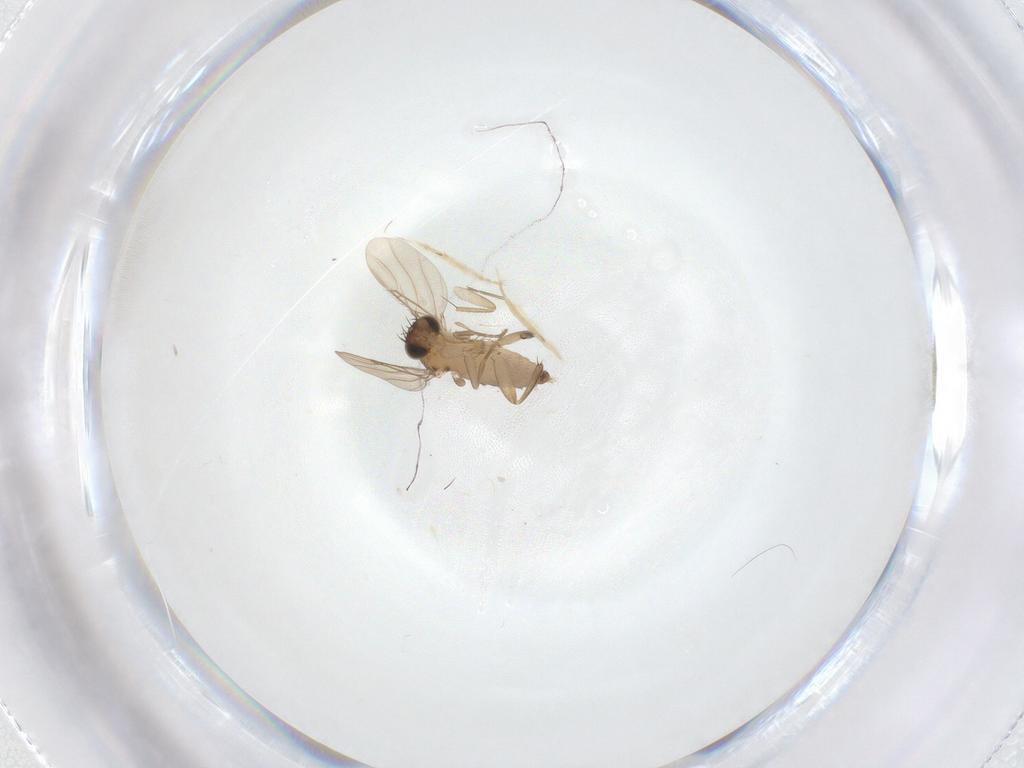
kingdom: Animalia
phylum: Arthropoda
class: Insecta
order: Diptera
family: Phoridae
